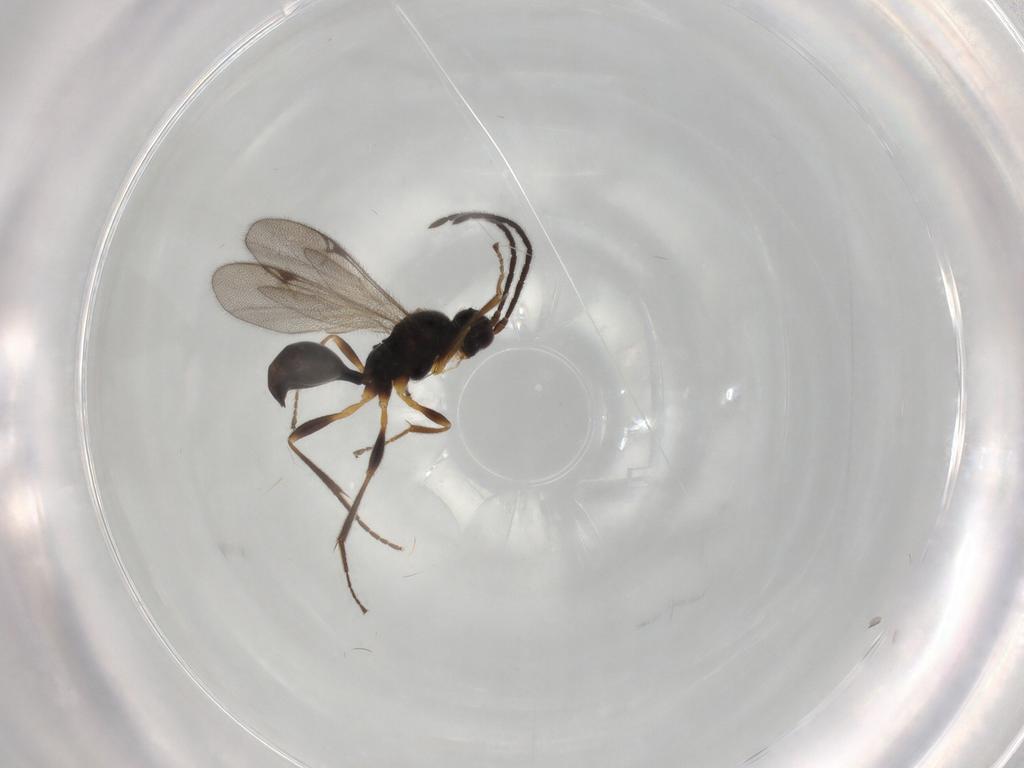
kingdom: Animalia
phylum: Arthropoda
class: Insecta
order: Hymenoptera
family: Proctotrupidae
